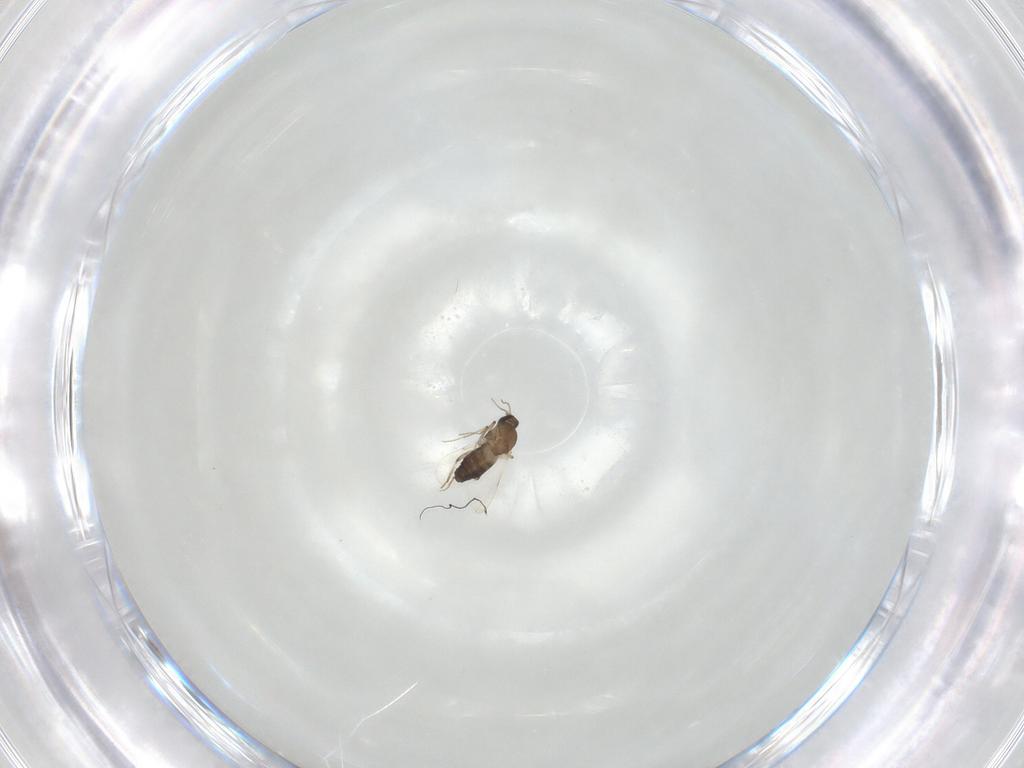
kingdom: Animalia
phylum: Arthropoda
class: Insecta
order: Diptera
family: Ceratopogonidae
